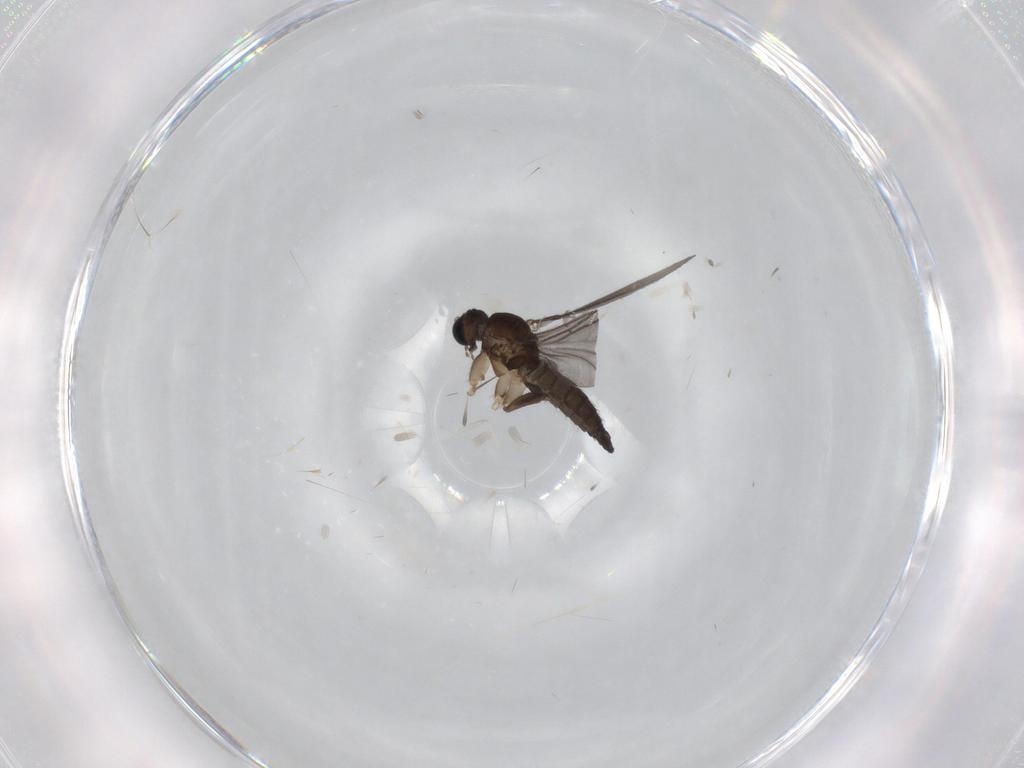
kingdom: Animalia
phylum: Arthropoda
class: Insecta
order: Diptera
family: Sciaridae
